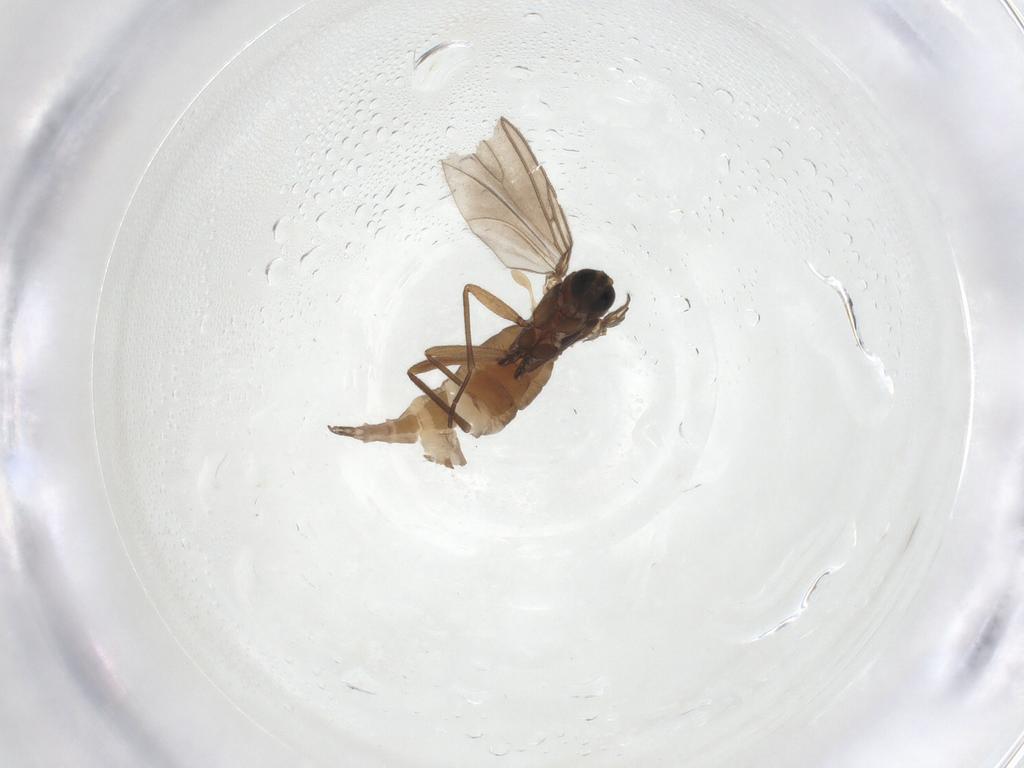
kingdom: Animalia
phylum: Arthropoda
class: Insecta
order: Diptera
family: Sciaridae
